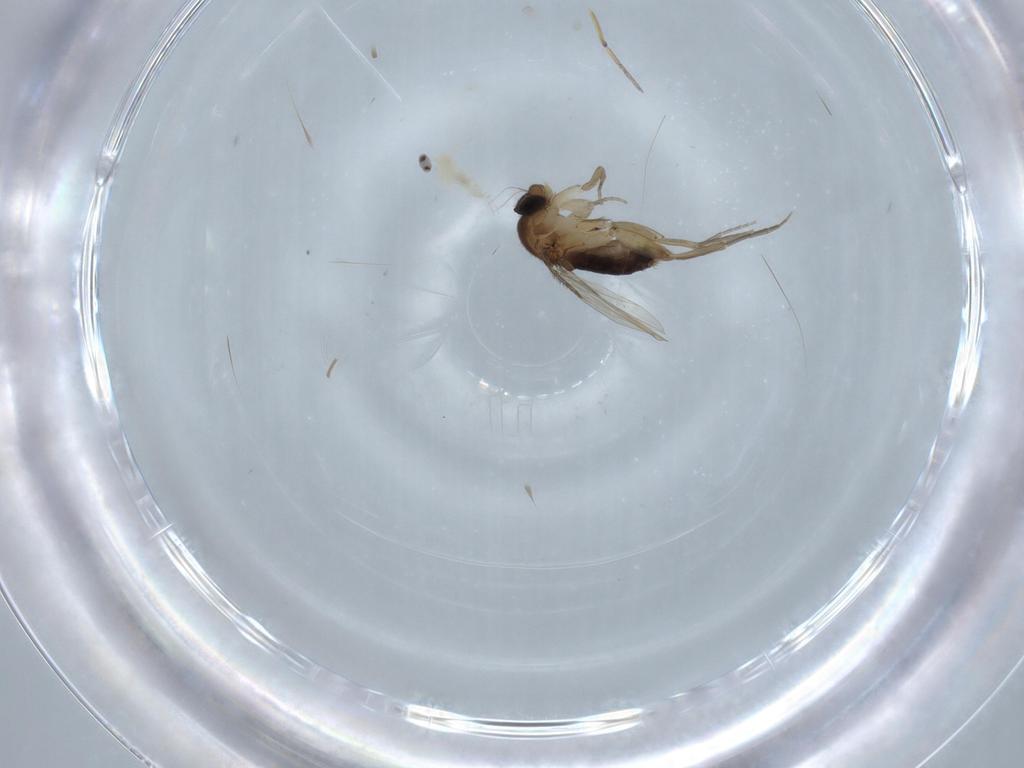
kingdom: Animalia
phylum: Arthropoda
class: Insecta
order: Diptera
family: Cecidomyiidae
